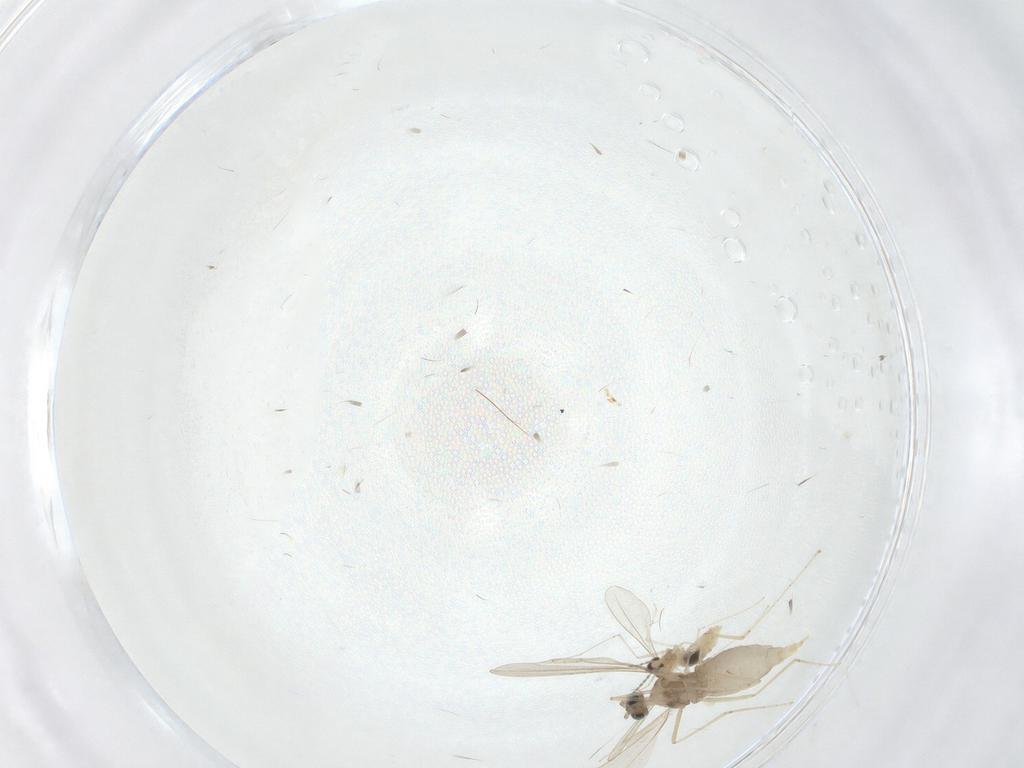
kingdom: Animalia
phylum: Arthropoda
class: Insecta
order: Diptera
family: Cecidomyiidae
